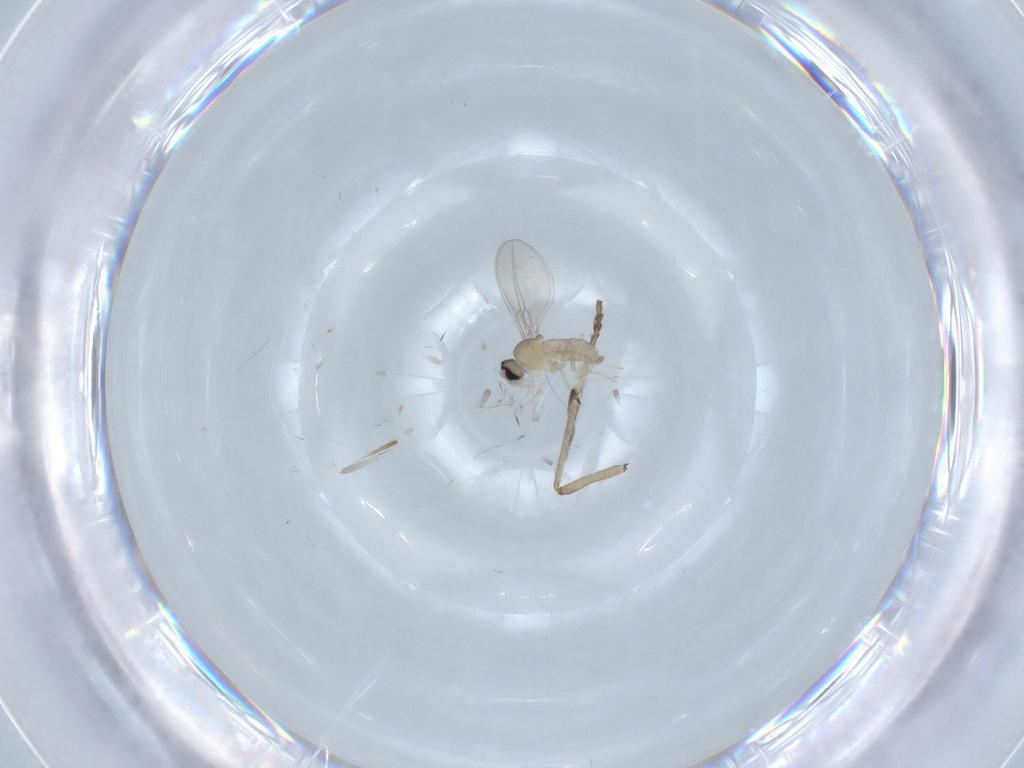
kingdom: Animalia
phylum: Arthropoda
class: Insecta
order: Diptera
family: Cecidomyiidae
